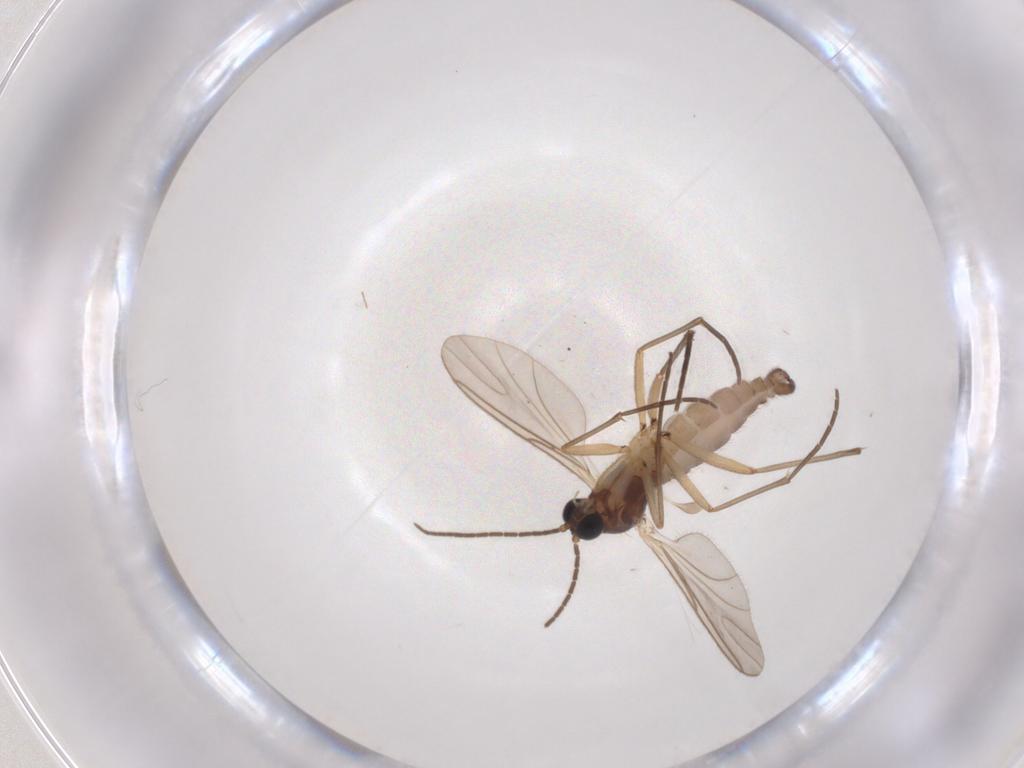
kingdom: Animalia
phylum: Arthropoda
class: Insecta
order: Diptera
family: Sciaridae
